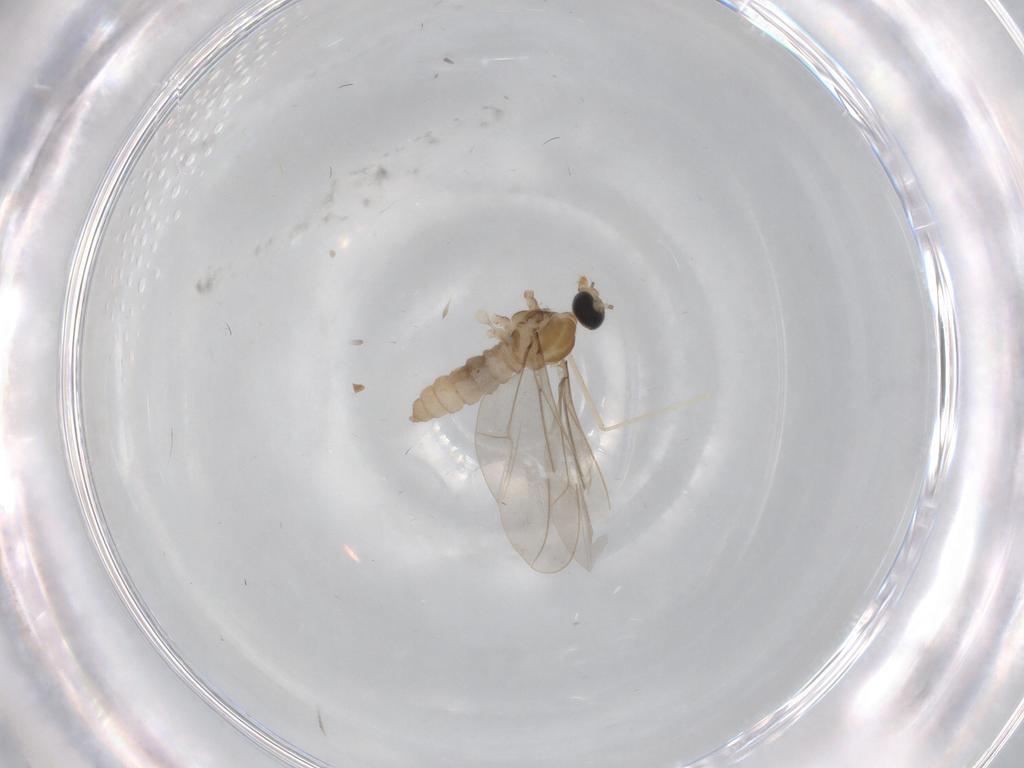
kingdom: Animalia
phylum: Arthropoda
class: Insecta
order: Diptera
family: Cecidomyiidae
